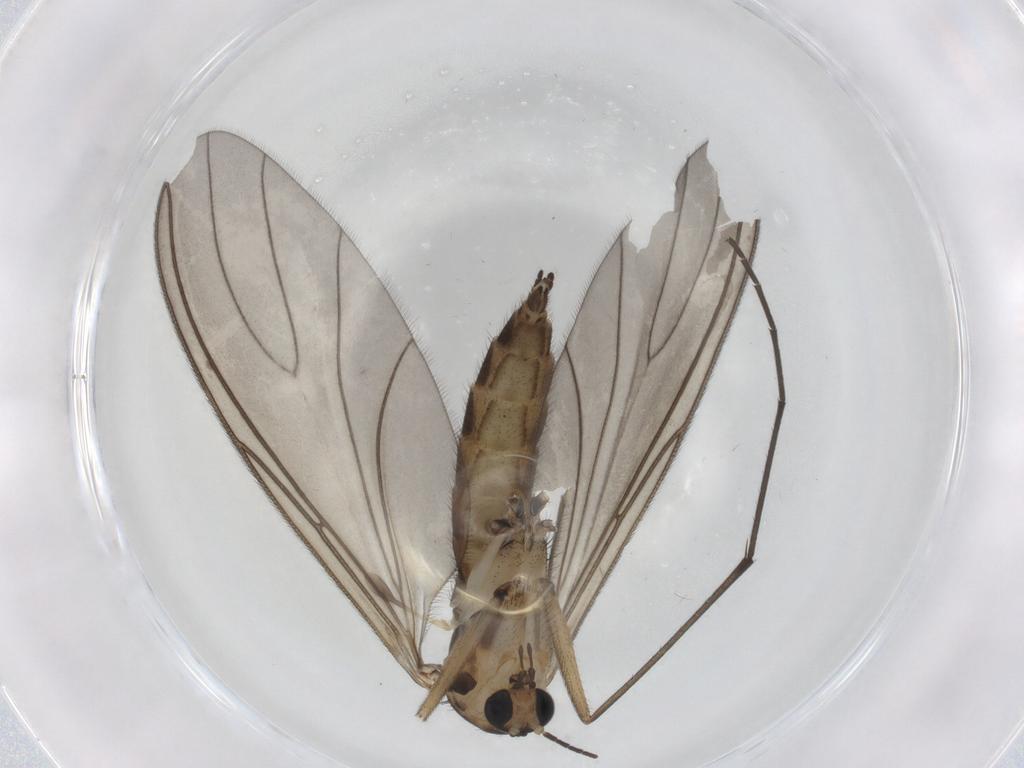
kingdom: Animalia
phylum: Arthropoda
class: Insecta
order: Diptera
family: Sciaridae
